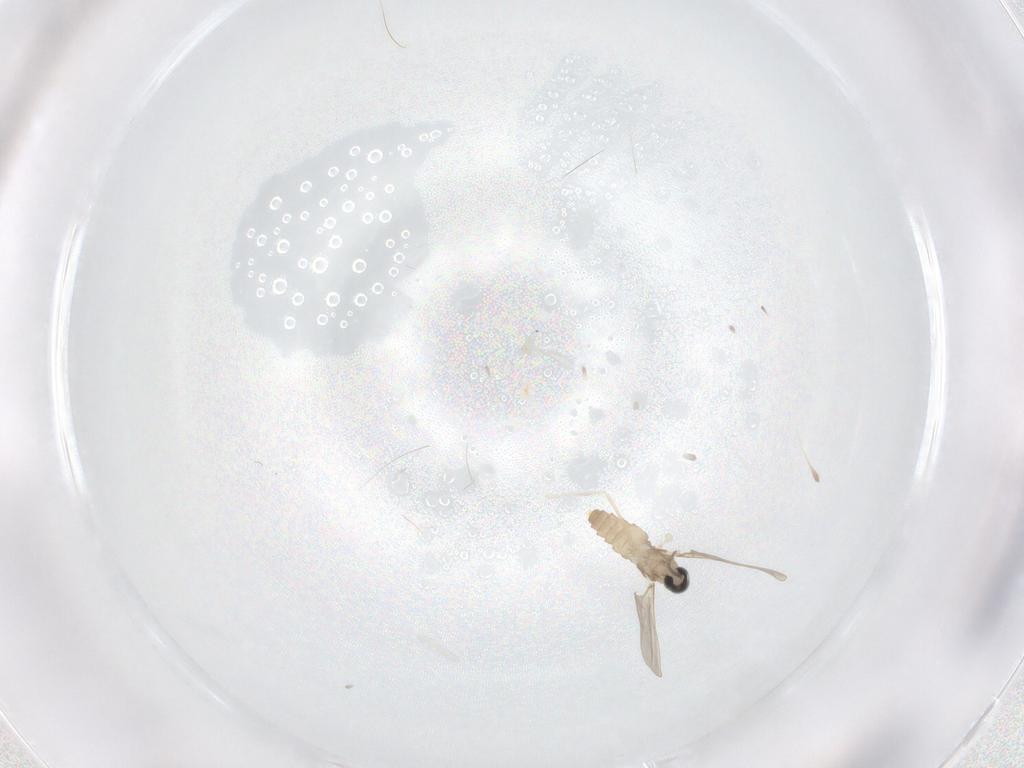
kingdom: Animalia
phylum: Arthropoda
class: Insecta
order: Diptera
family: Cecidomyiidae
